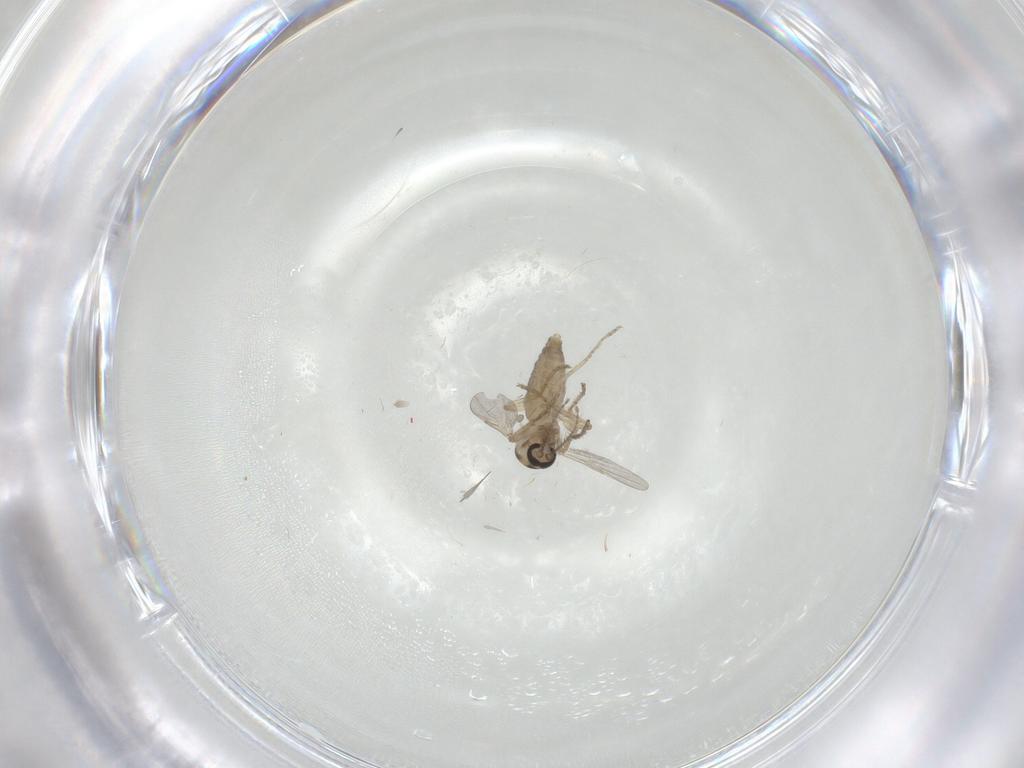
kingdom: Animalia
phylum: Arthropoda
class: Insecta
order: Diptera
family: Ceratopogonidae
